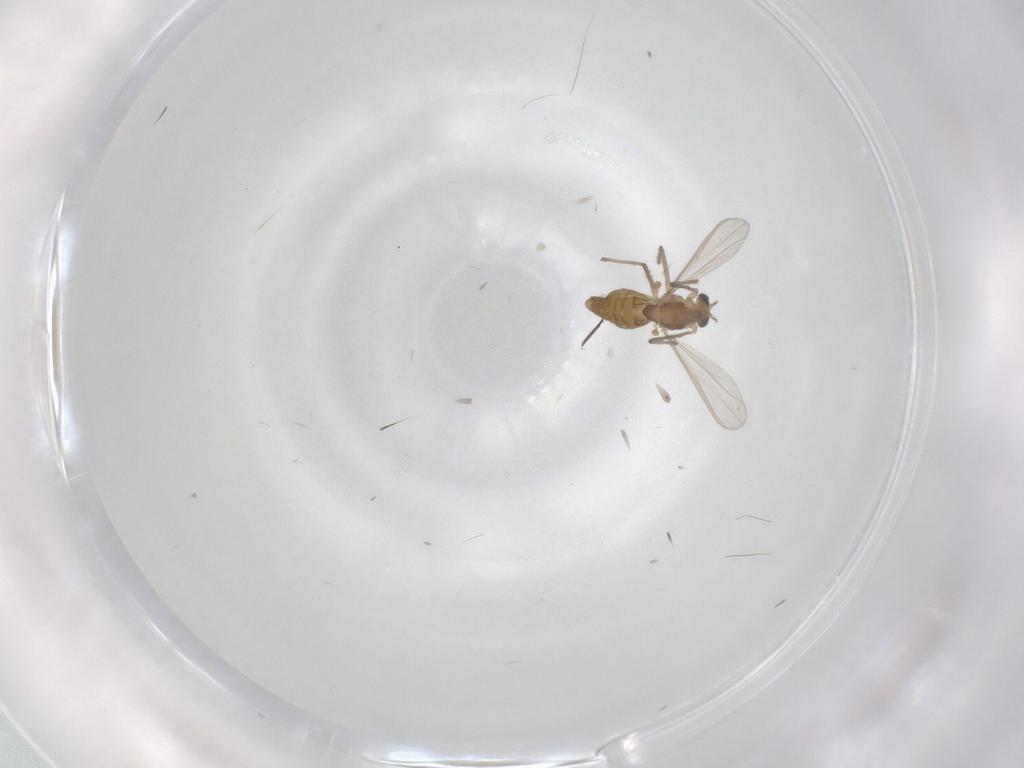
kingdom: Animalia
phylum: Arthropoda
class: Insecta
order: Diptera
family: Chironomidae
